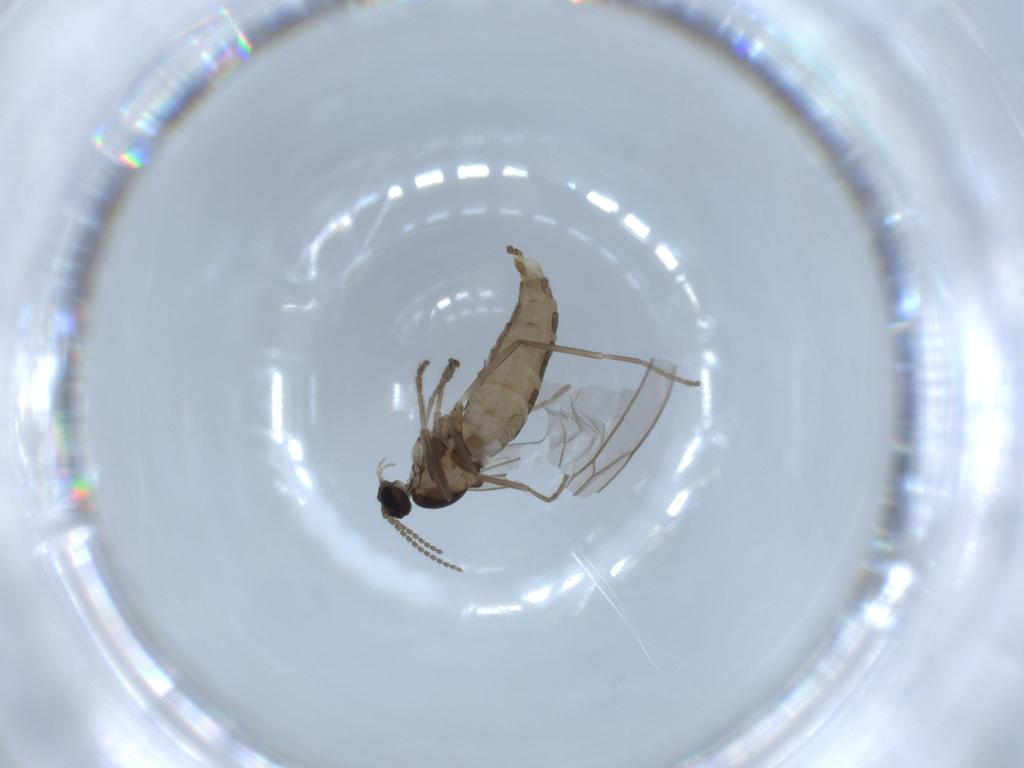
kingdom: Animalia
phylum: Arthropoda
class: Insecta
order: Diptera
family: Cecidomyiidae
